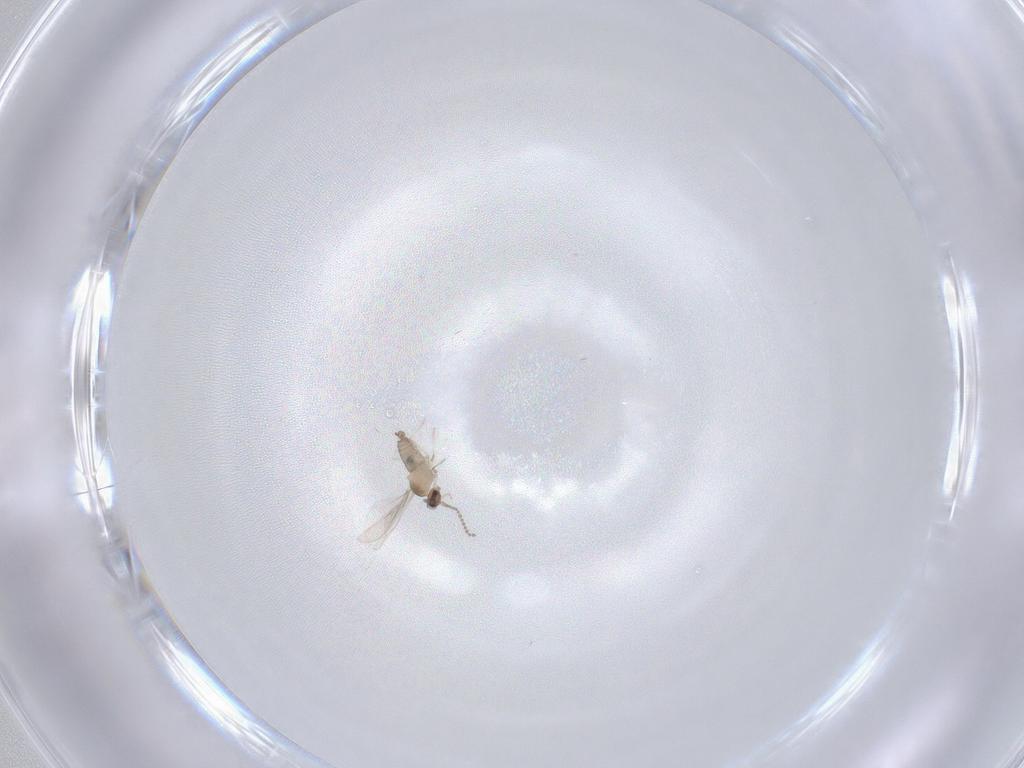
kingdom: Animalia
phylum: Arthropoda
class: Insecta
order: Diptera
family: Cecidomyiidae
